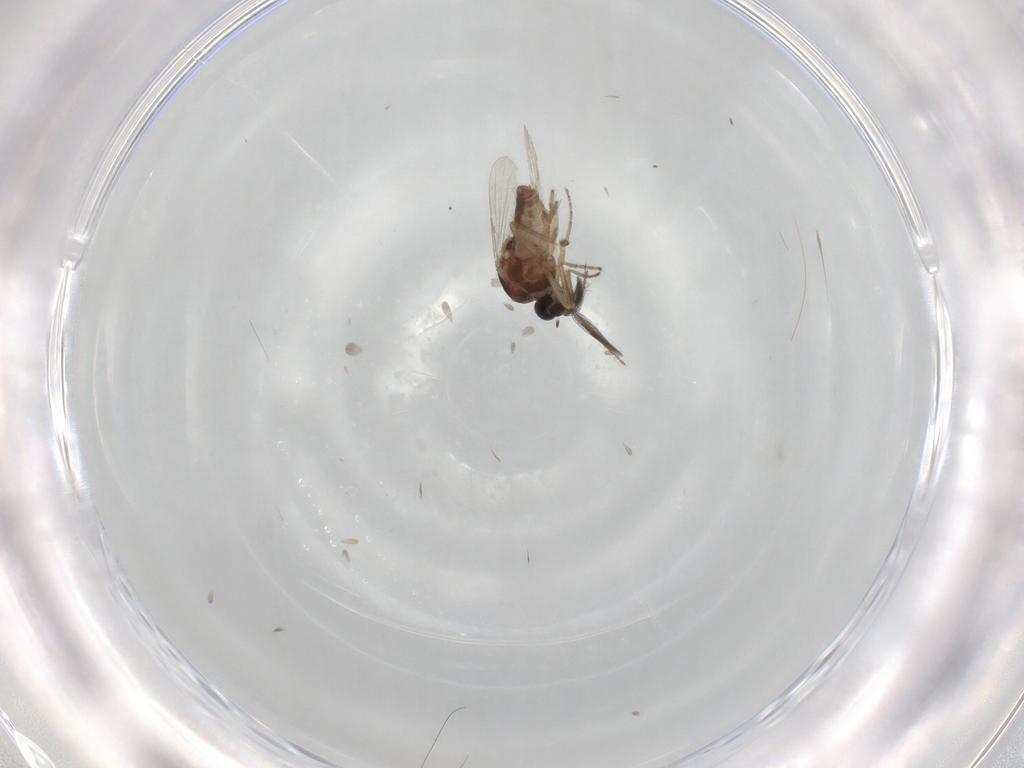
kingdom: Animalia
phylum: Arthropoda
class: Insecta
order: Diptera
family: Ceratopogonidae
